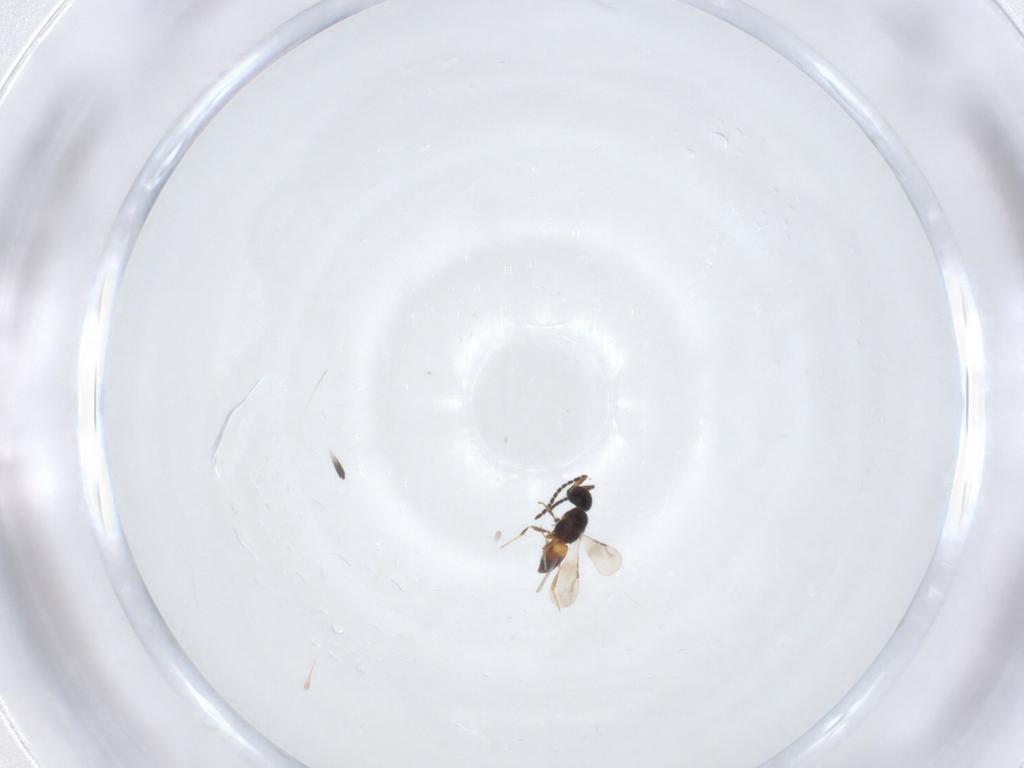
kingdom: Animalia
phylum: Arthropoda
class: Insecta
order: Hymenoptera
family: Ceraphronidae
